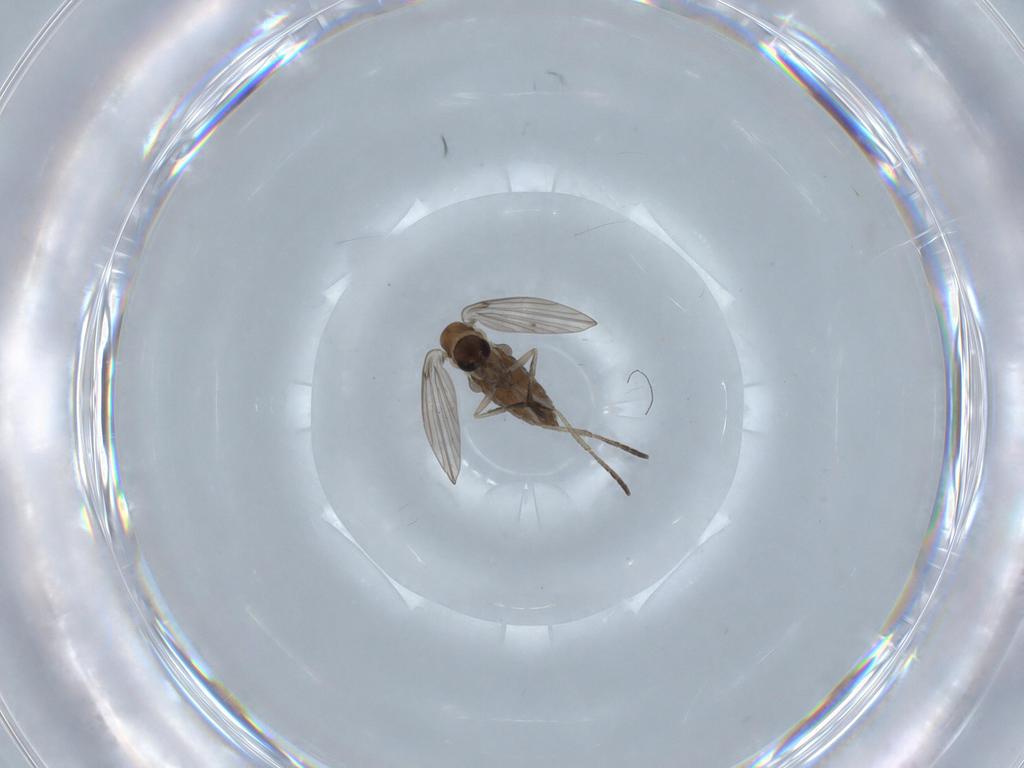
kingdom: Animalia
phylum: Arthropoda
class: Insecta
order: Diptera
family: Psychodidae
